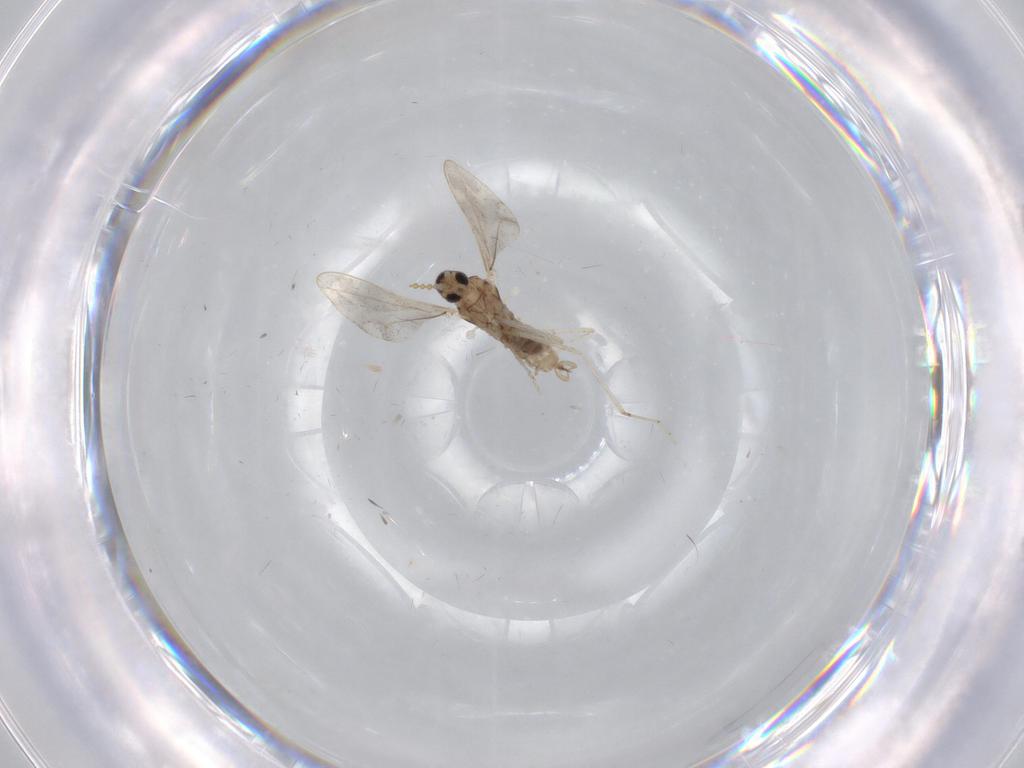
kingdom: Animalia
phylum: Arthropoda
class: Insecta
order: Diptera
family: Cecidomyiidae
